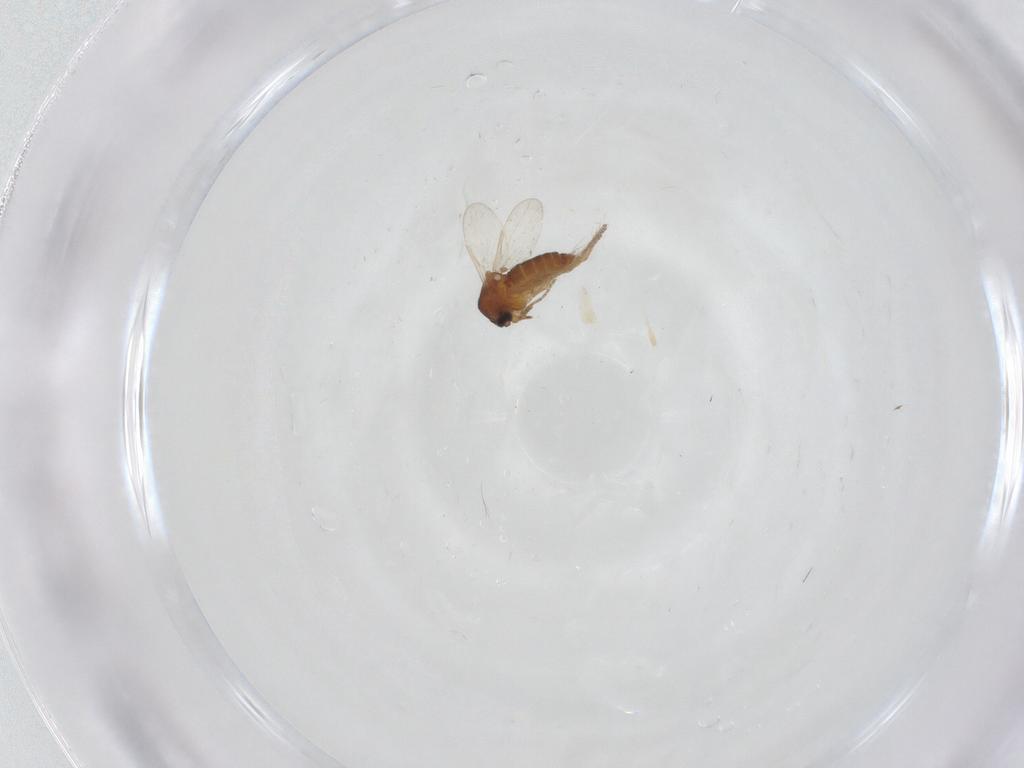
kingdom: Animalia
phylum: Arthropoda
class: Insecta
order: Diptera
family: Ceratopogonidae
